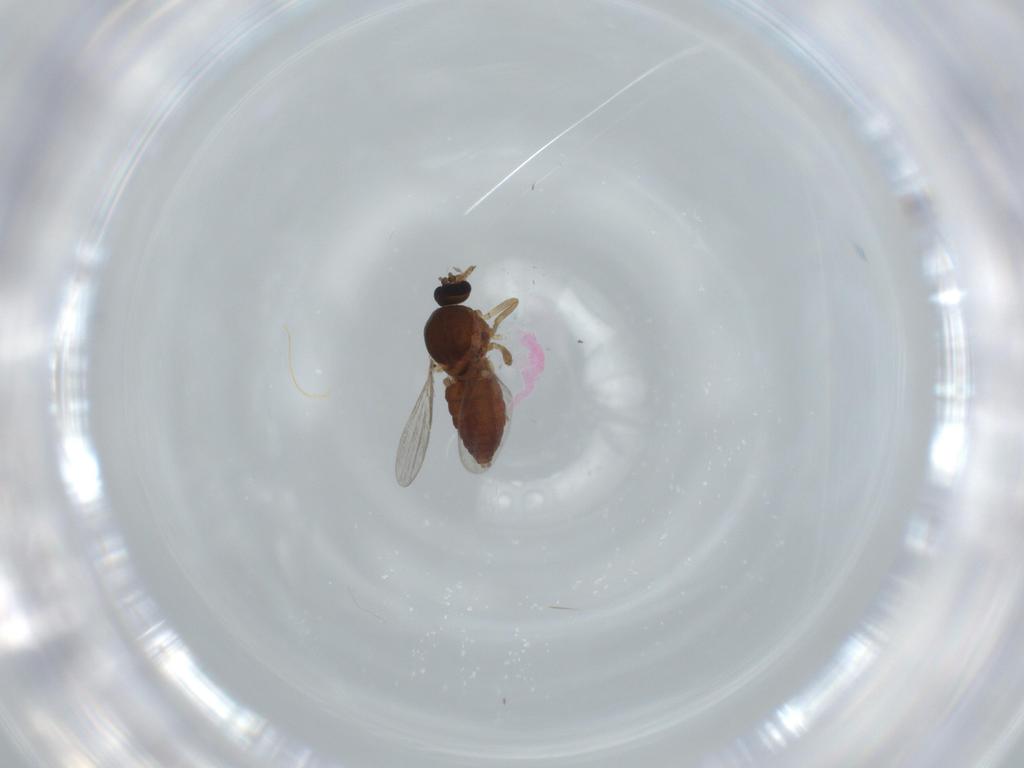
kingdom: Animalia
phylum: Arthropoda
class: Insecta
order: Diptera
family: Ceratopogonidae
